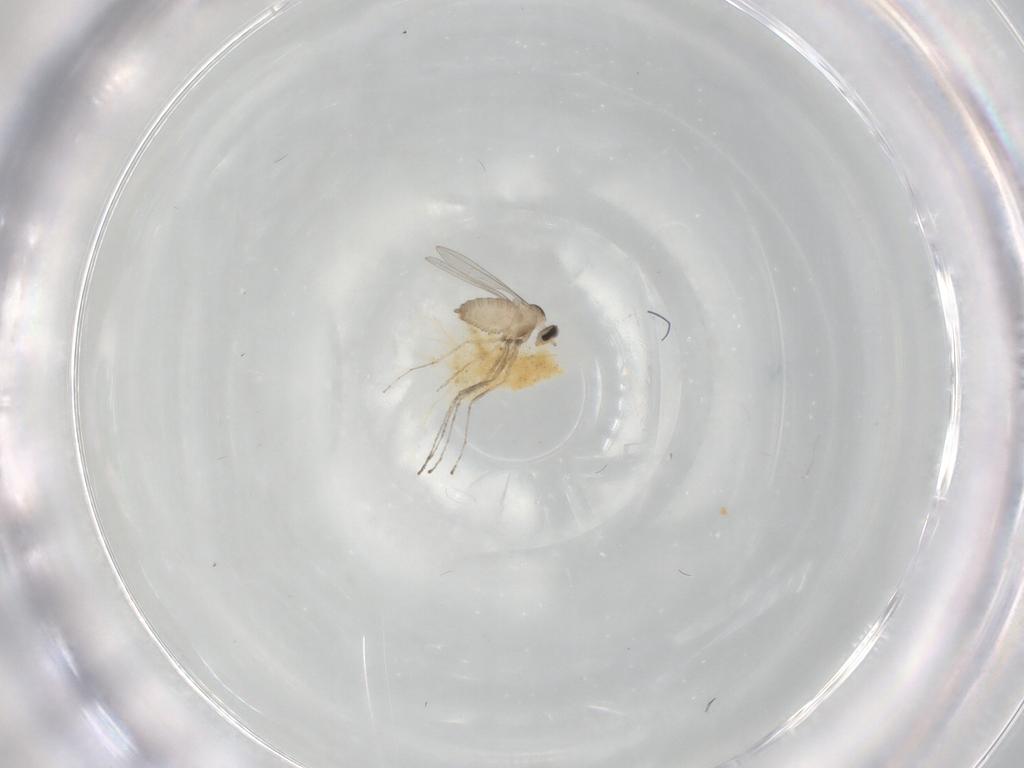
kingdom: Animalia
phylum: Arthropoda
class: Insecta
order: Diptera
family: Cecidomyiidae
